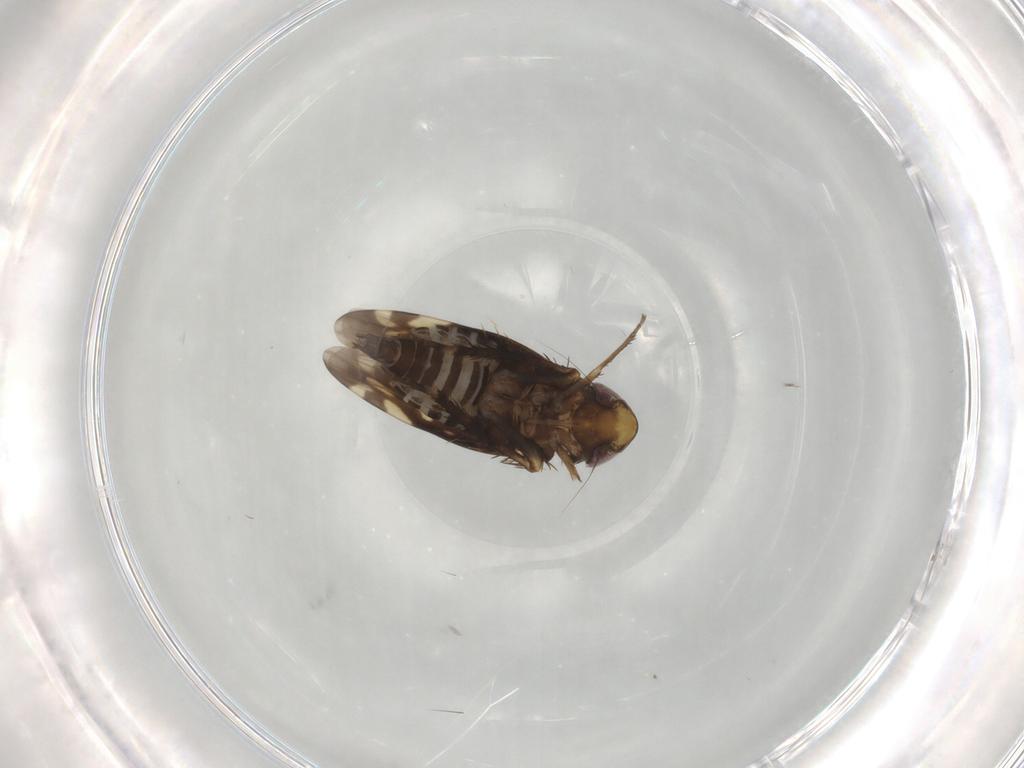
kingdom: Animalia
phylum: Arthropoda
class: Insecta
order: Hemiptera
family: Cicadellidae
